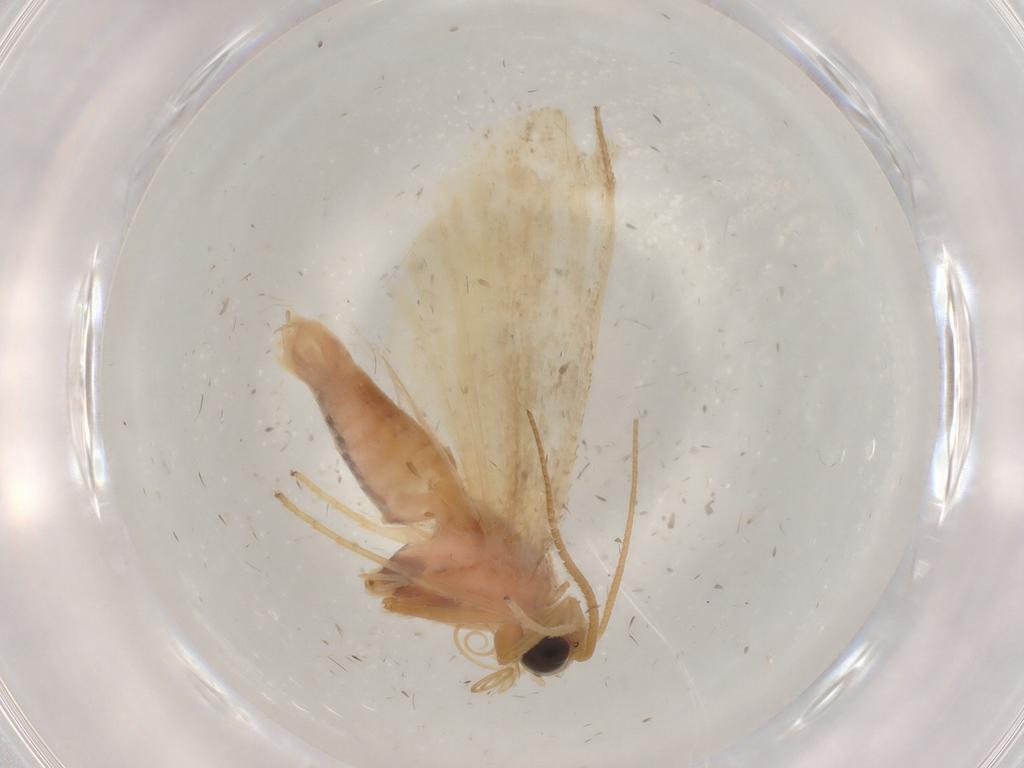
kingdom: Animalia
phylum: Arthropoda
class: Insecta
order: Lepidoptera
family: Pyralidae
